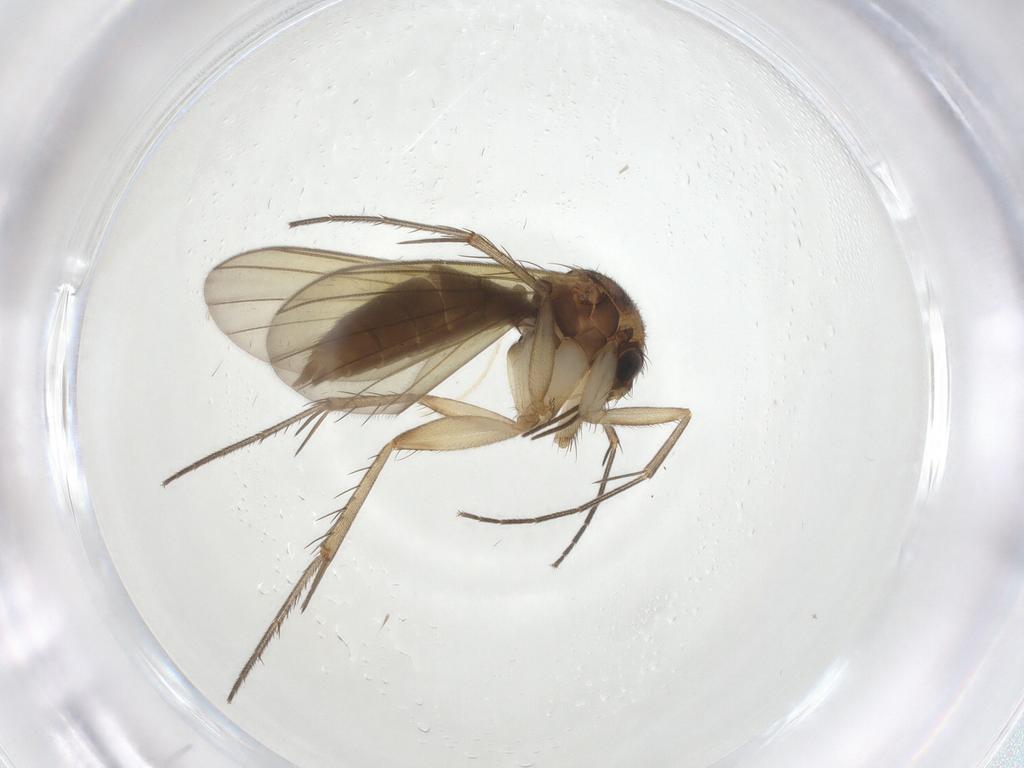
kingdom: Animalia
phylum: Arthropoda
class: Insecta
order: Diptera
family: Mycetophilidae
